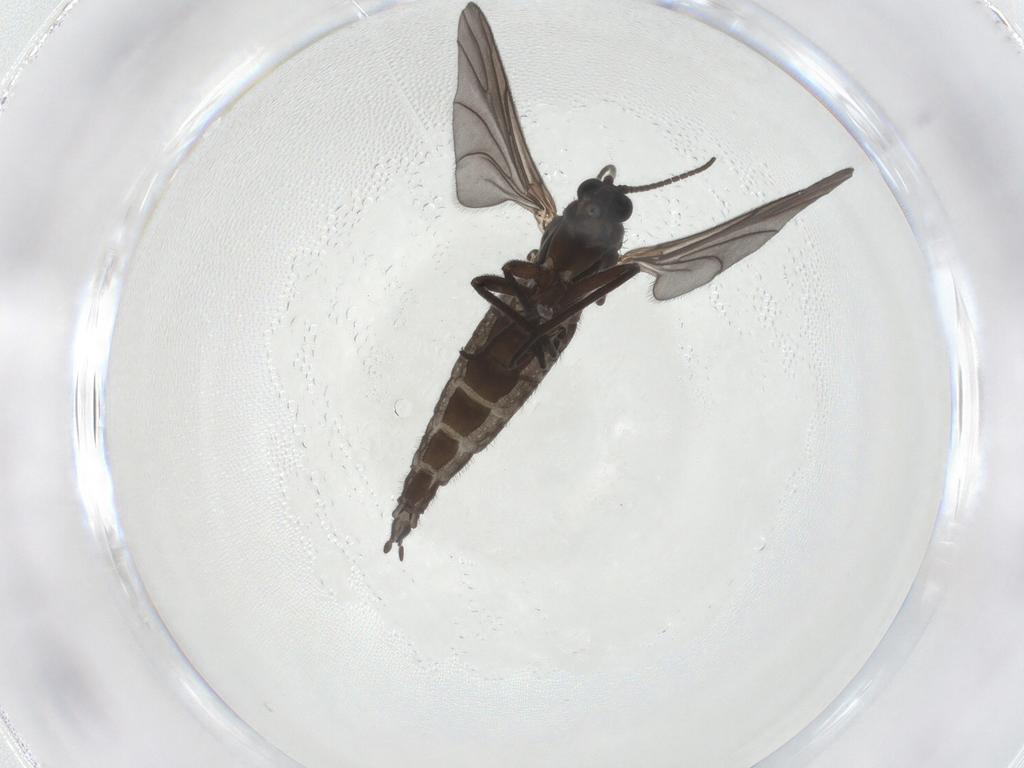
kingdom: Animalia
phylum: Arthropoda
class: Insecta
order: Diptera
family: Sciaridae
